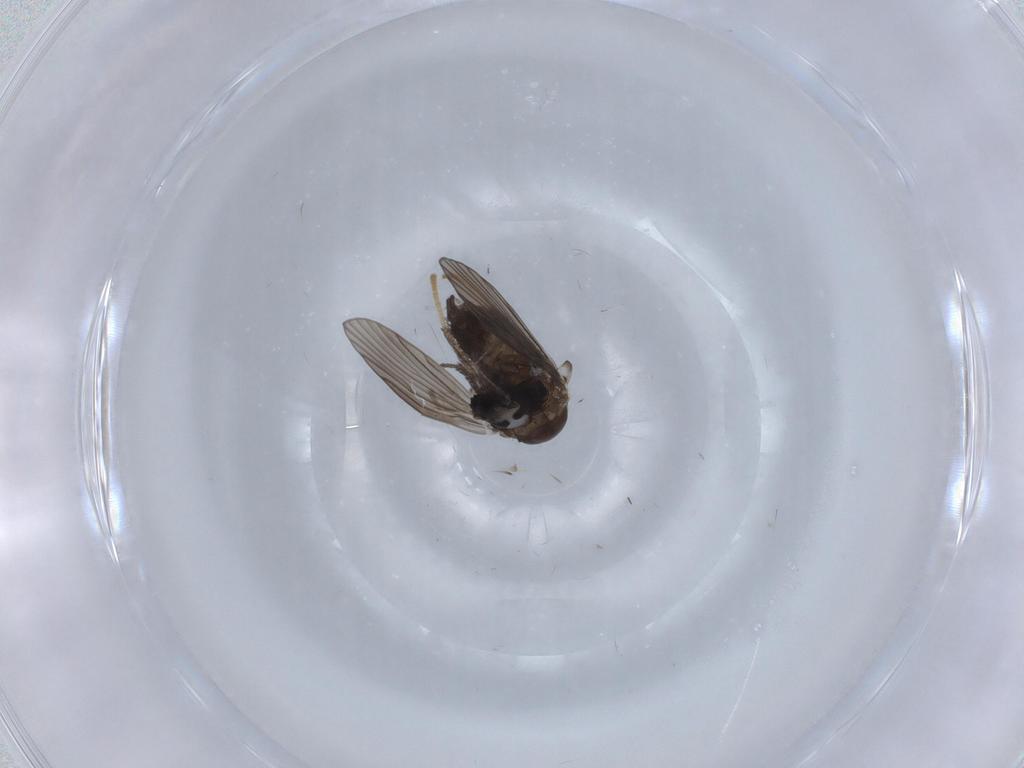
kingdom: Animalia
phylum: Arthropoda
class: Insecta
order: Diptera
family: Psychodidae
